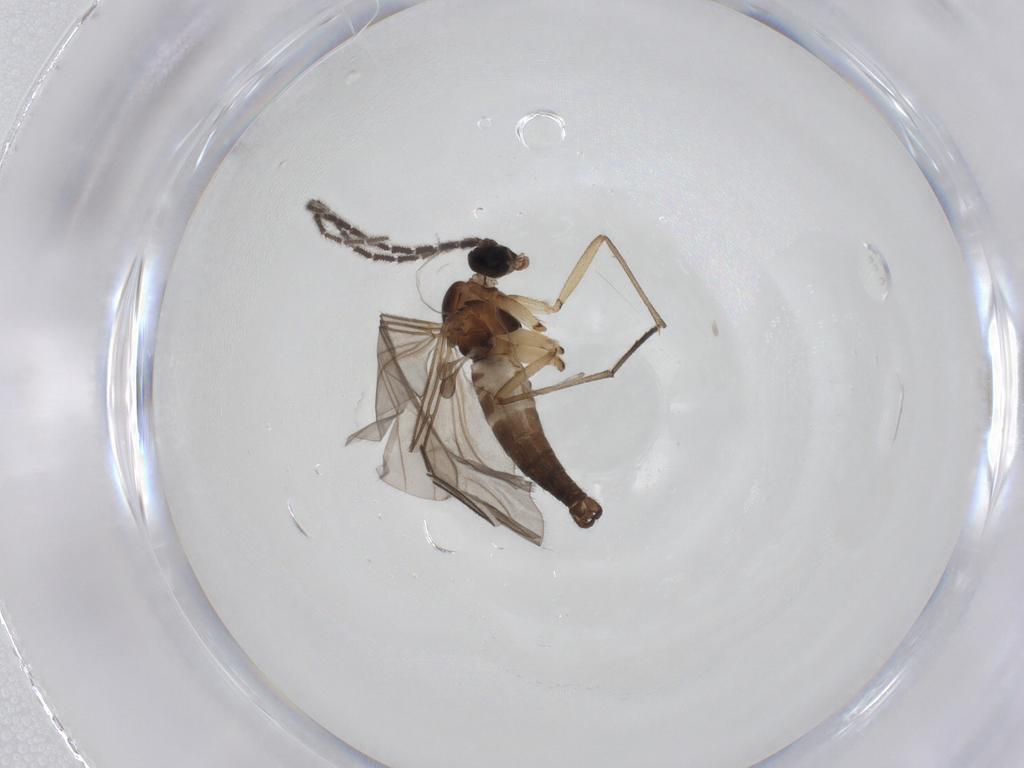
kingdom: Animalia
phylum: Arthropoda
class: Insecta
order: Diptera
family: Sciaridae
